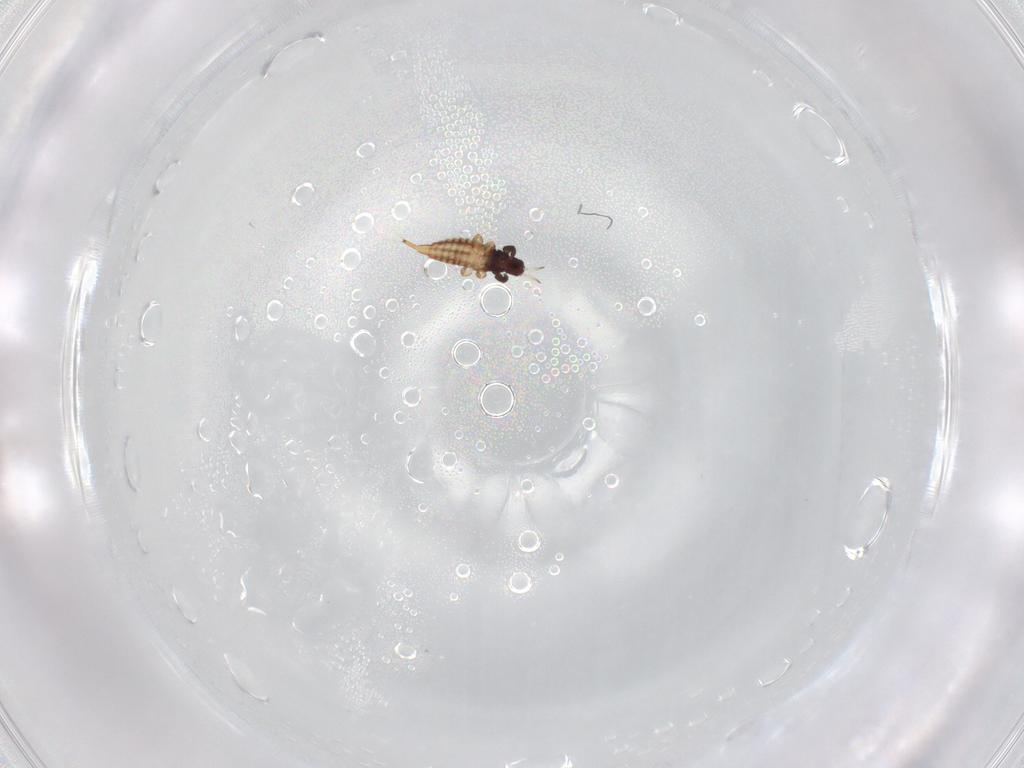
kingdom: Animalia
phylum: Arthropoda
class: Insecta
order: Thysanoptera
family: Phlaeothripidae
